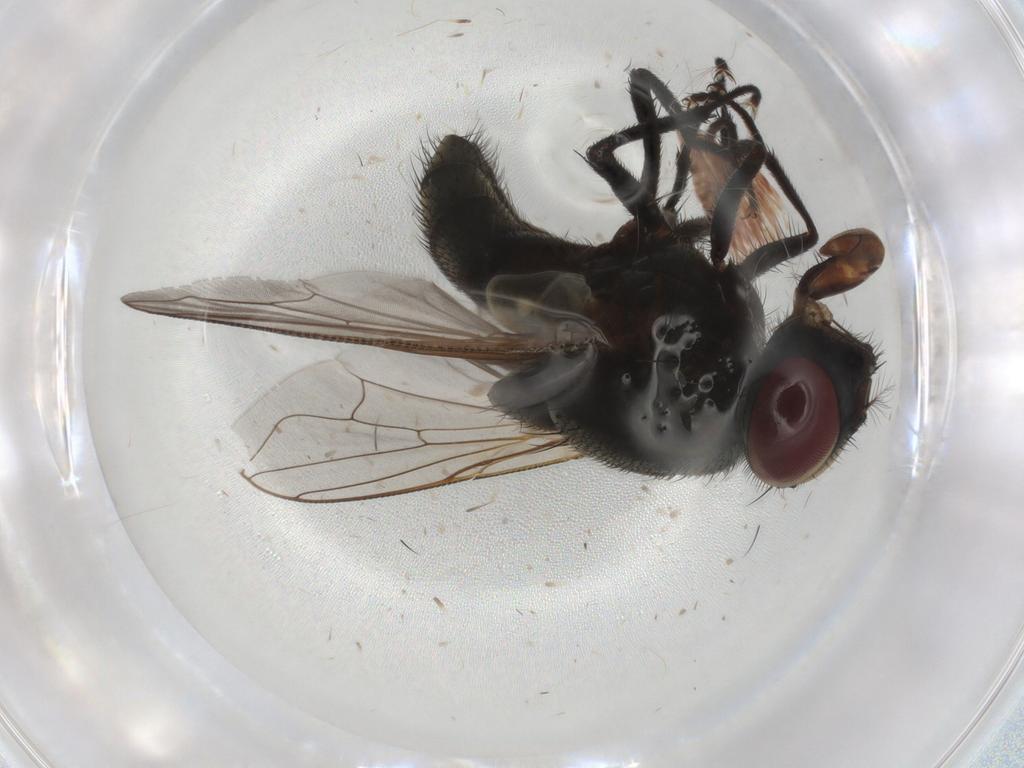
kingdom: Animalia
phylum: Arthropoda
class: Insecta
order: Diptera
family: Muscidae
